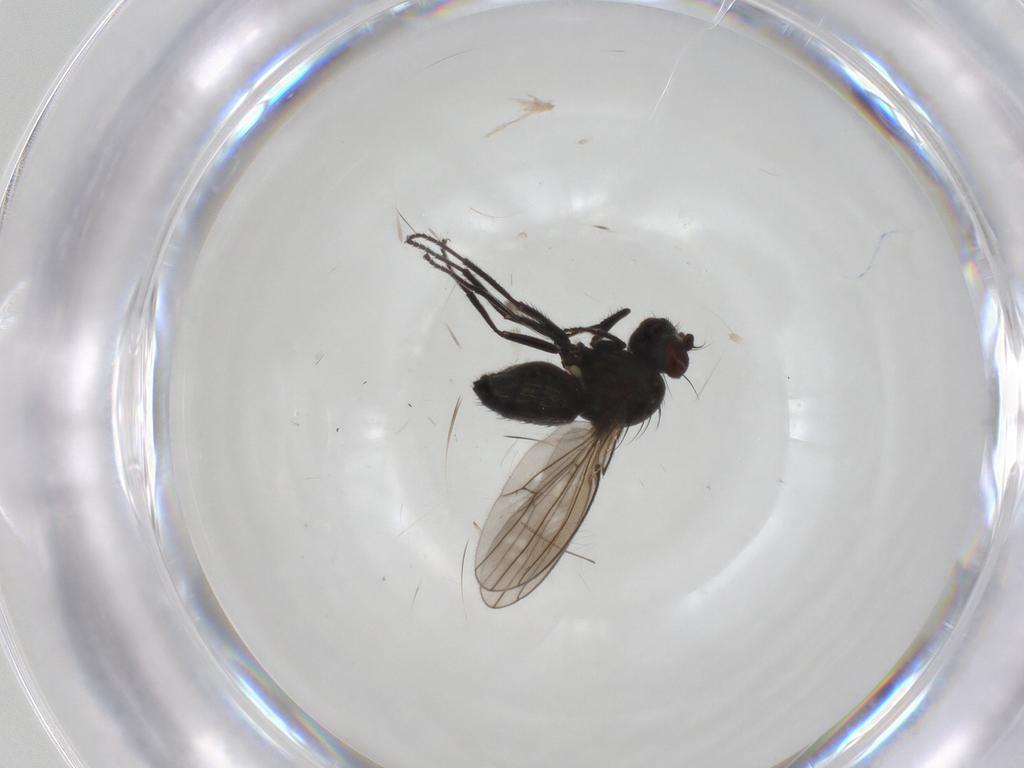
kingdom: Animalia
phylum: Arthropoda
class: Insecta
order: Diptera
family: Ephydridae
